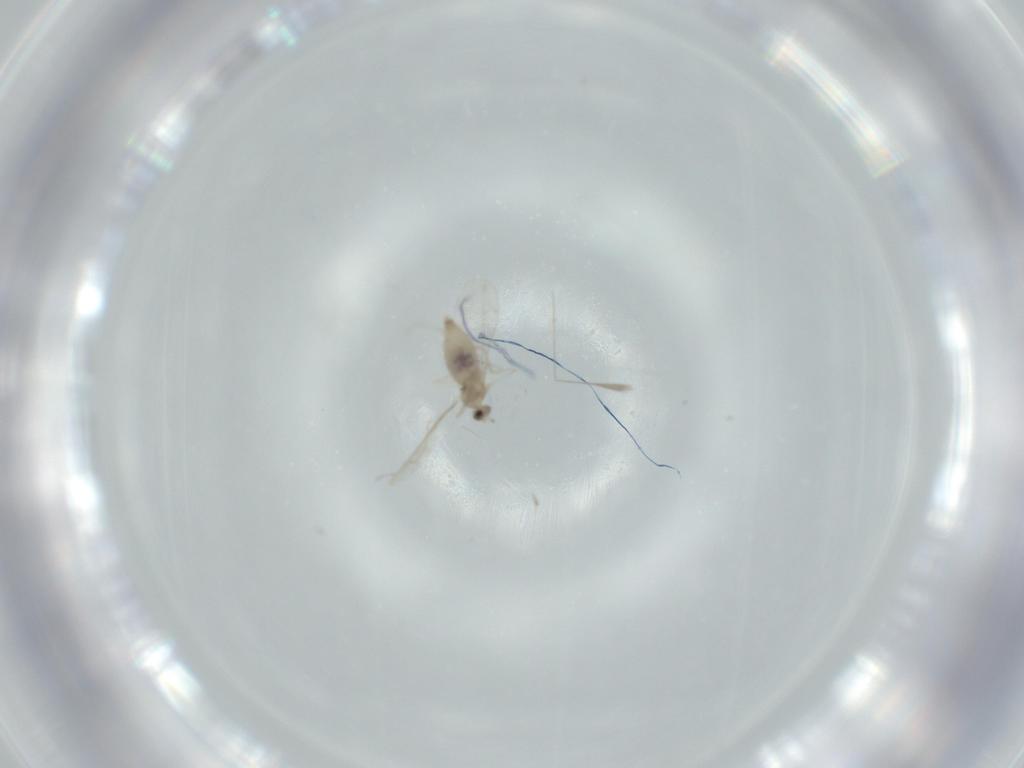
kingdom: Animalia
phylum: Arthropoda
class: Insecta
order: Diptera
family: Cecidomyiidae
